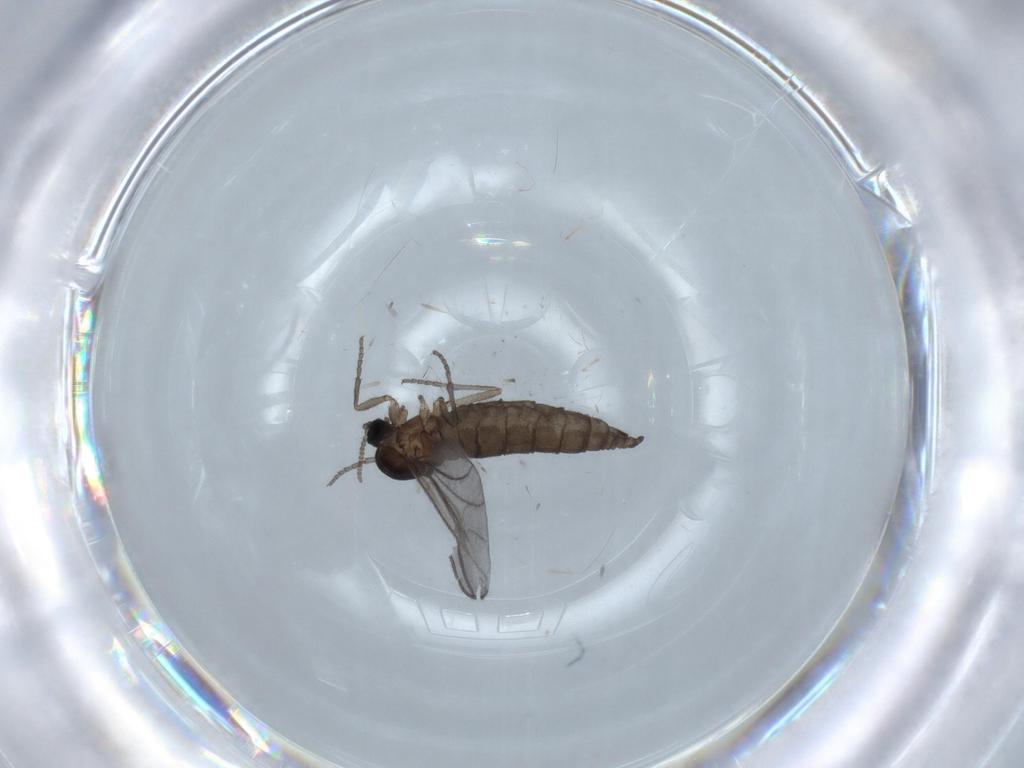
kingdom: Animalia
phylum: Arthropoda
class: Insecta
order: Diptera
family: Sciaridae
